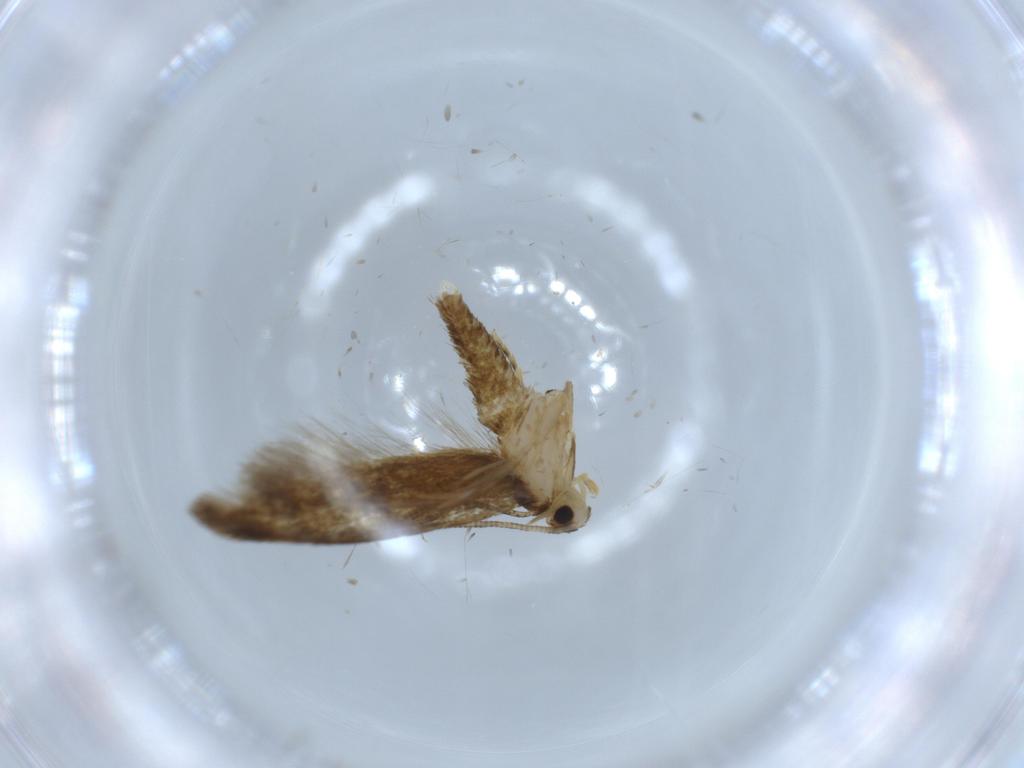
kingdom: Animalia
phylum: Arthropoda
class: Insecta
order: Lepidoptera
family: Tineidae
